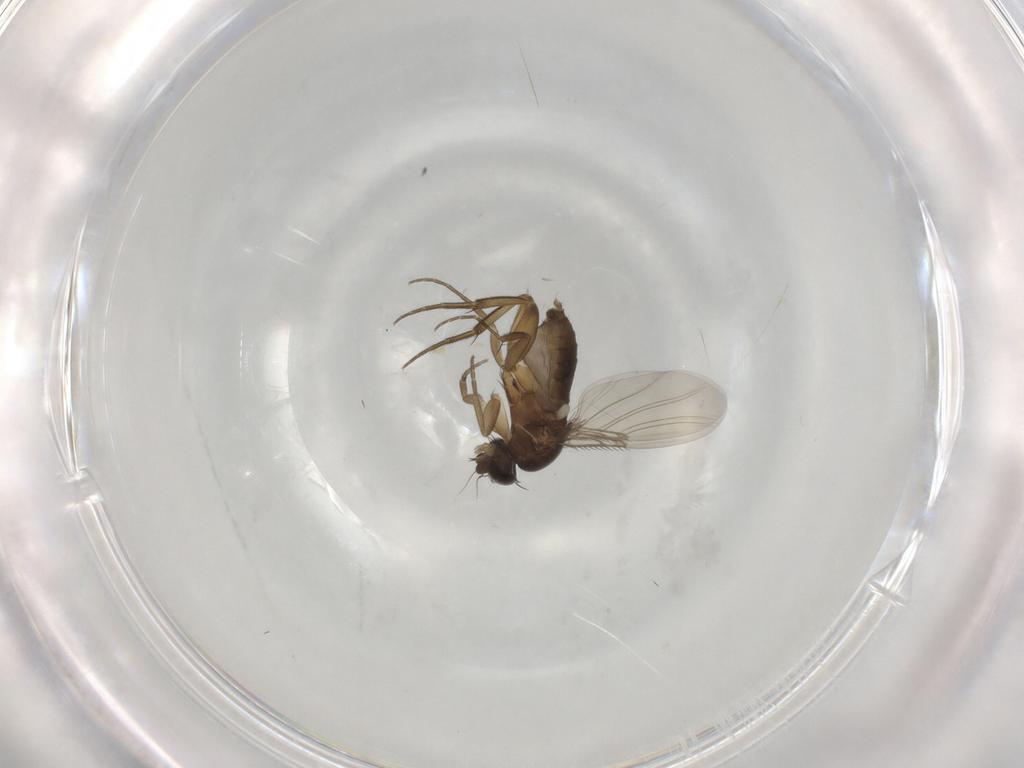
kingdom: Animalia
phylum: Arthropoda
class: Insecta
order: Diptera
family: Phoridae
